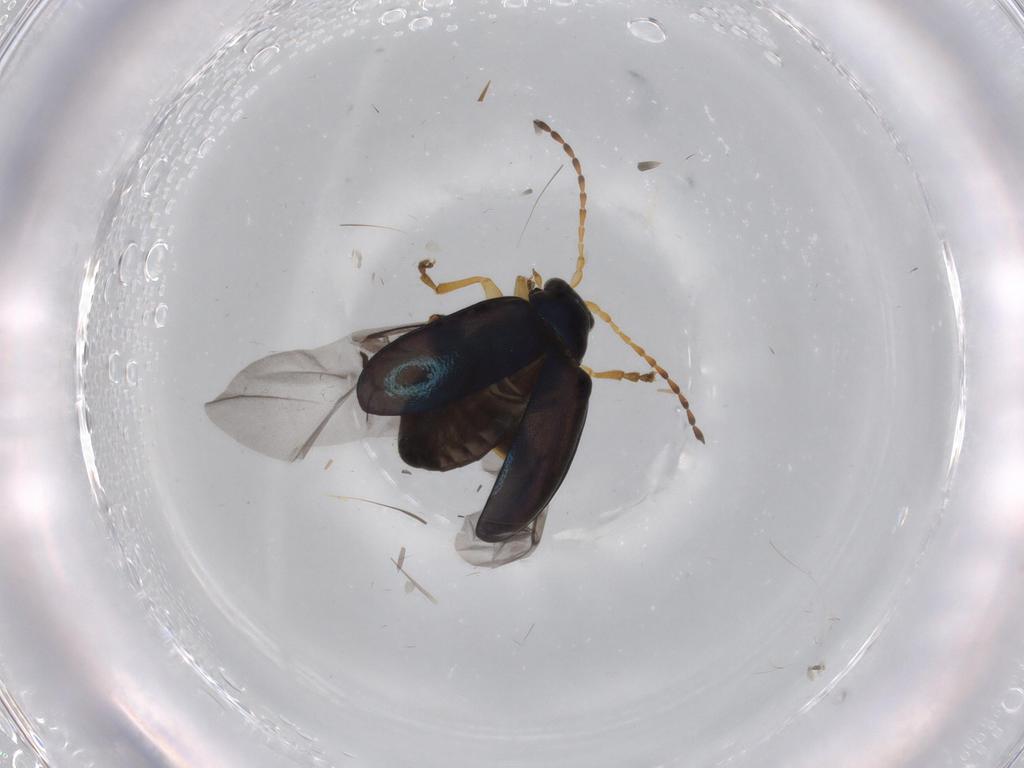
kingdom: Animalia
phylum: Arthropoda
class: Insecta
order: Coleoptera
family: Chrysomelidae
